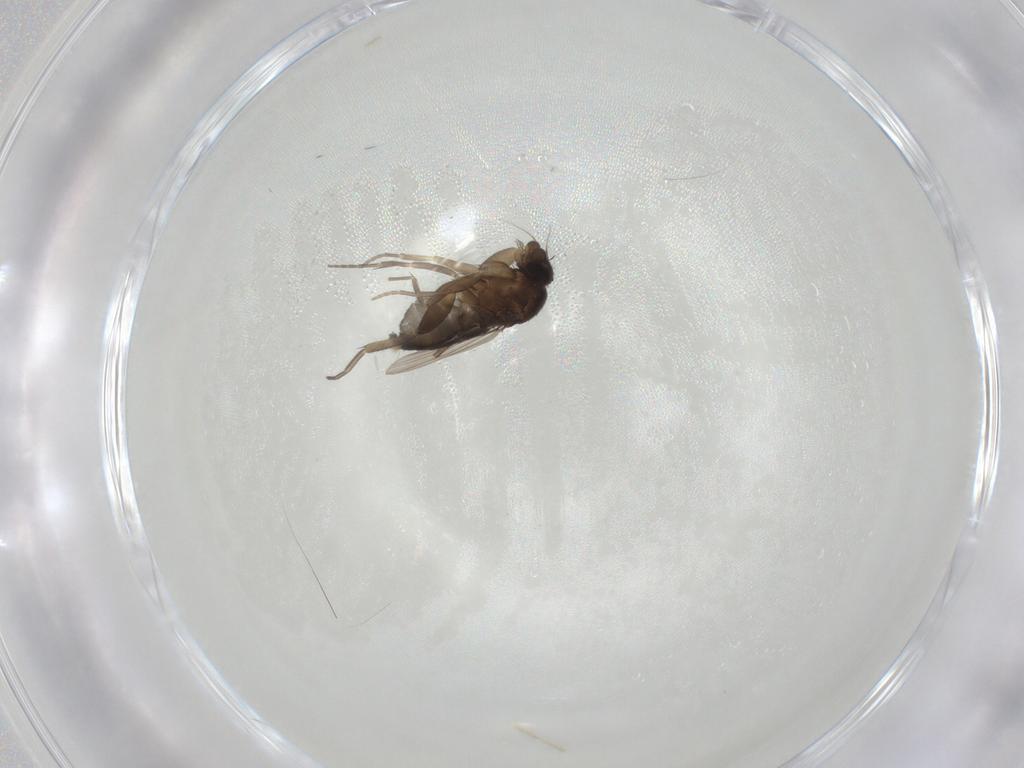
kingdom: Animalia
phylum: Arthropoda
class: Insecta
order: Diptera
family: Phoridae
